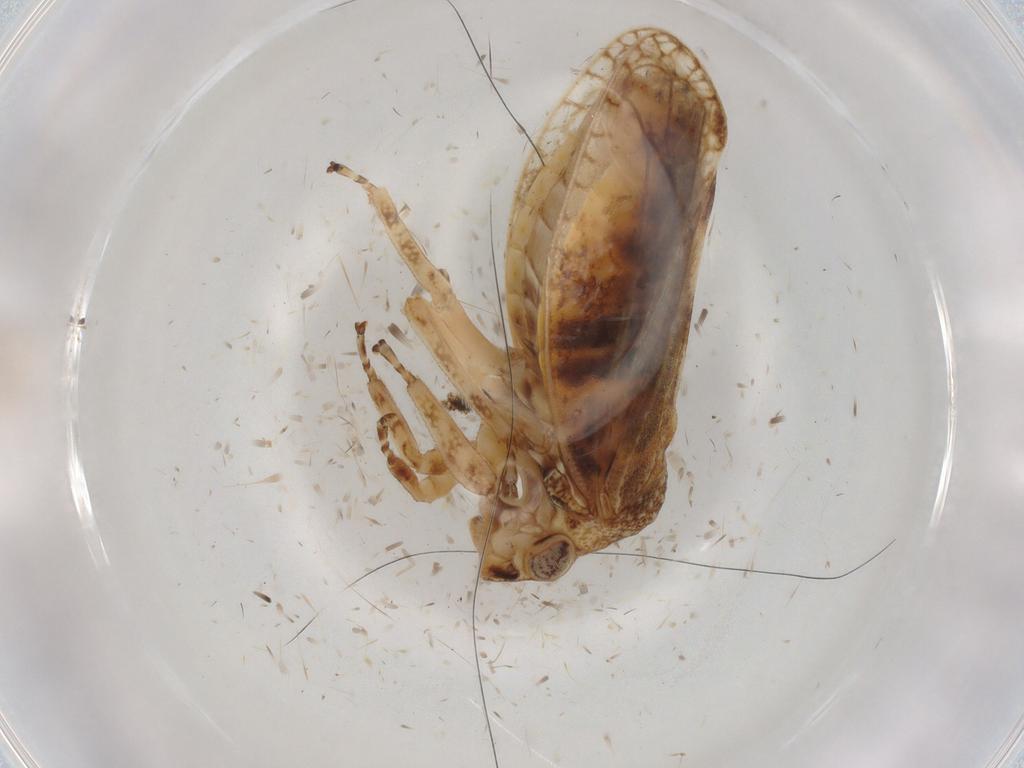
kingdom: Animalia
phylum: Arthropoda
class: Insecta
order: Hemiptera
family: Cicadellidae
